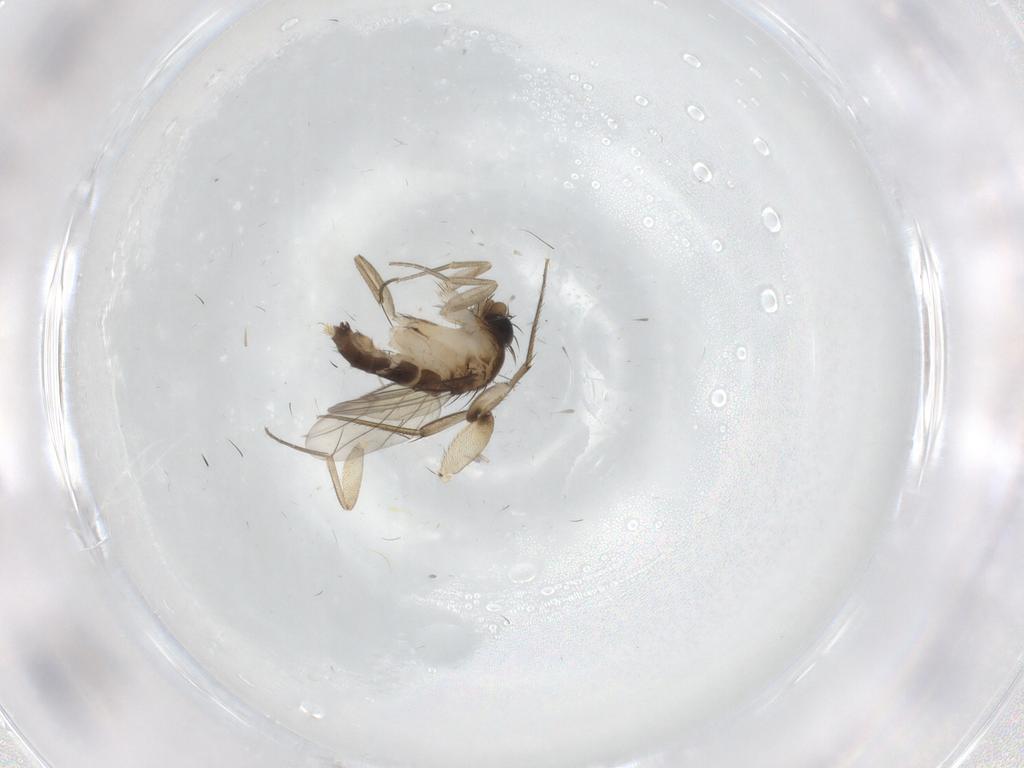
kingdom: Animalia
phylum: Arthropoda
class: Insecta
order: Diptera
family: Phoridae
